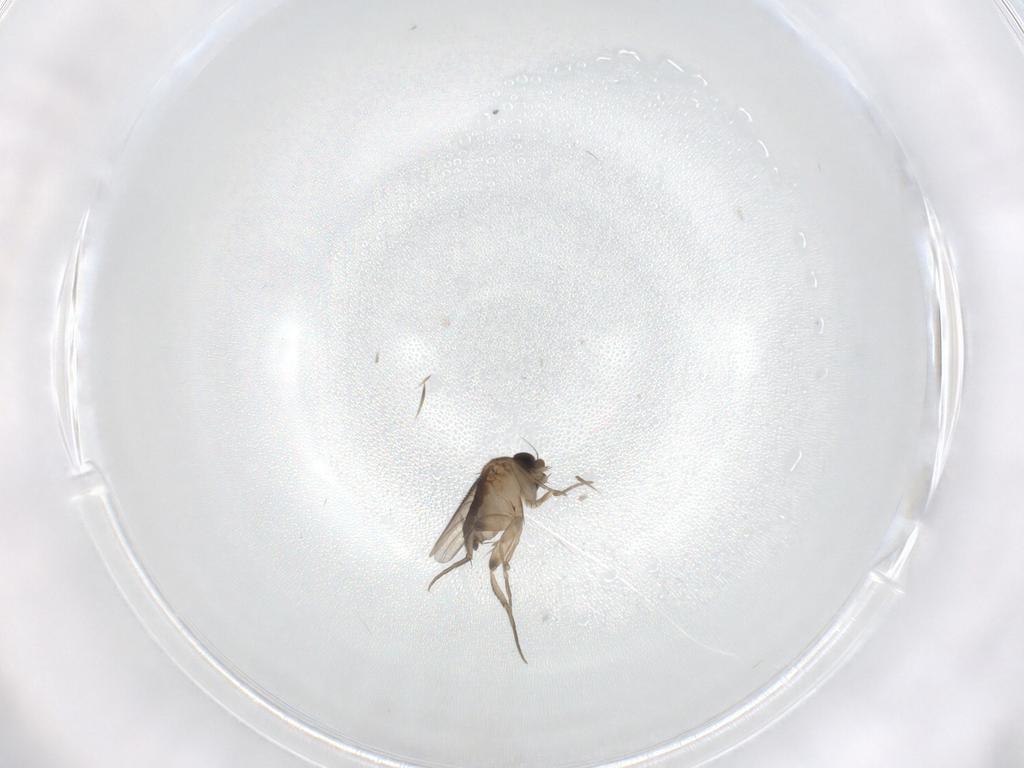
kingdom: Animalia
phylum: Arthropoda
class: Insecta
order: Diptera
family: Phoridae
